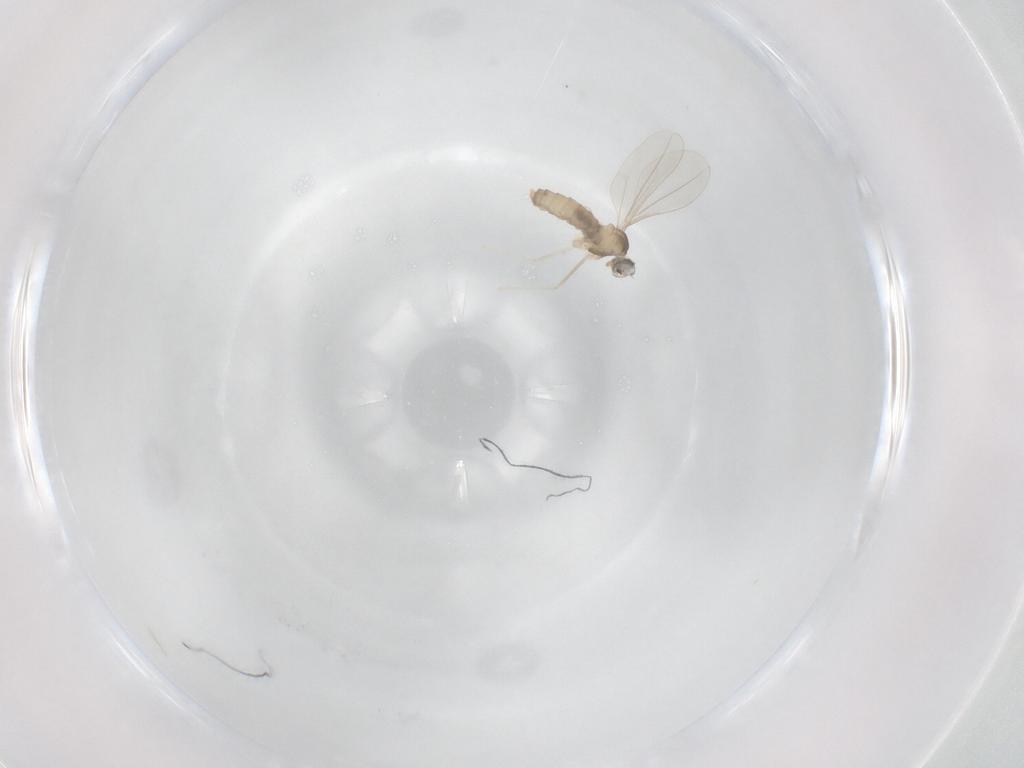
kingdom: Animalia
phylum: Arthropoda
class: Insecta
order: Diptera
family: Cecidomyiidae
